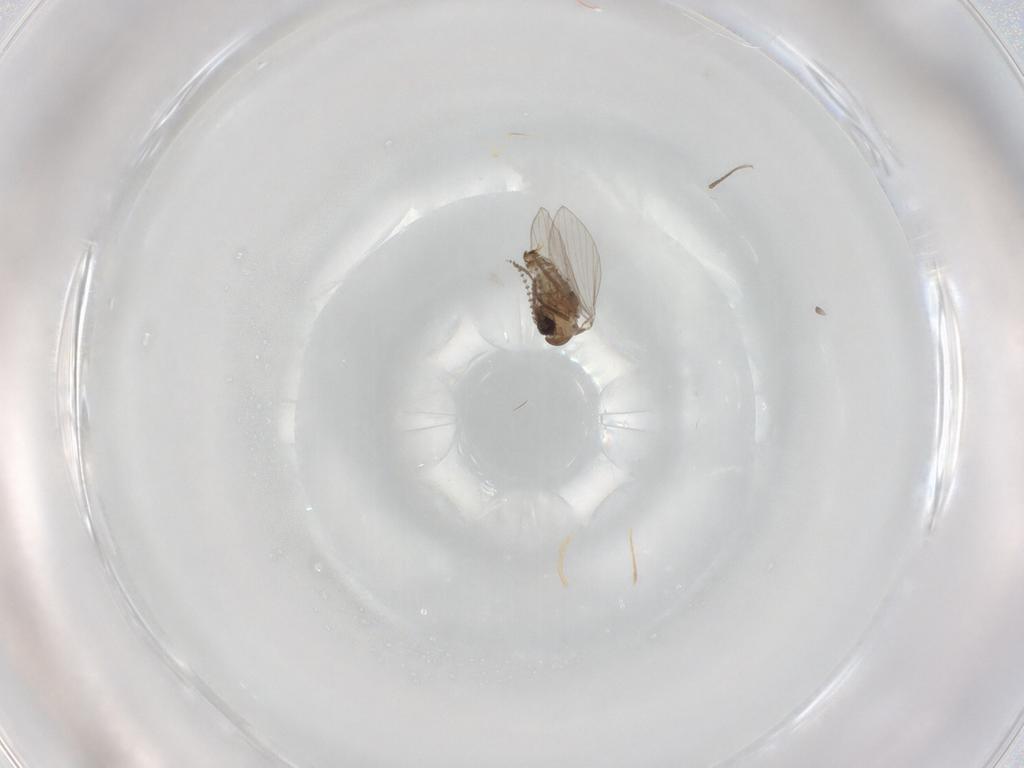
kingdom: Animalia
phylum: Arthropoda
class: Insecta
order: Diptera
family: Psychodidae
